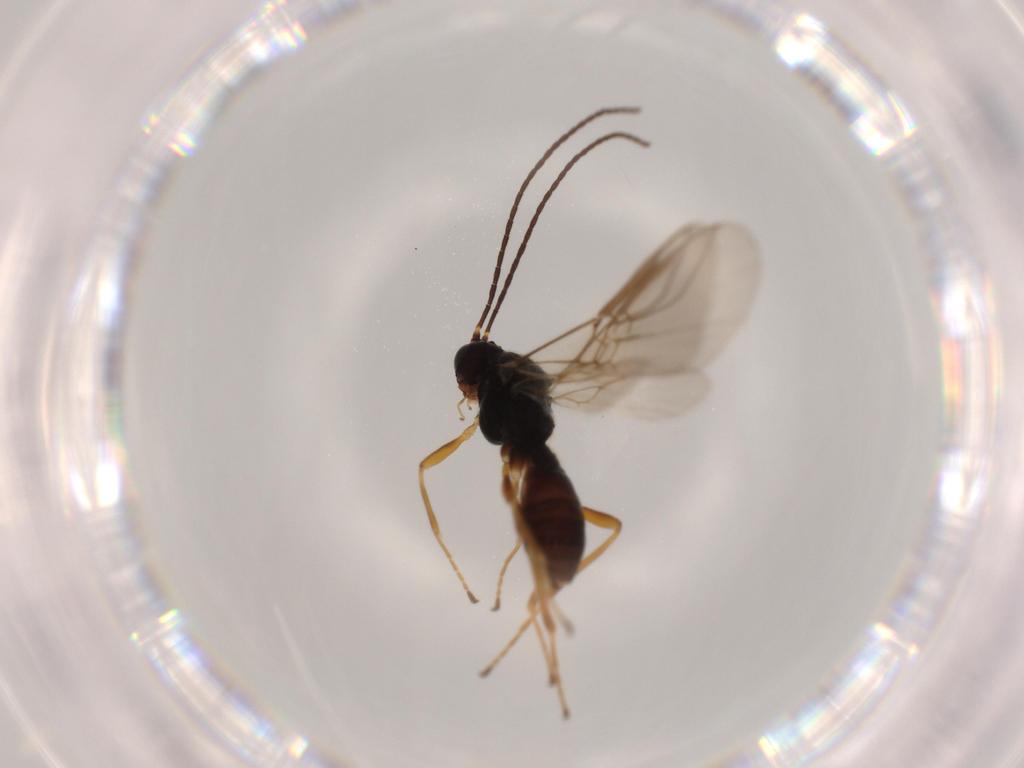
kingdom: Animalia
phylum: Arthropoda
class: Insecta
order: Hymenoptera
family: Braconidae
